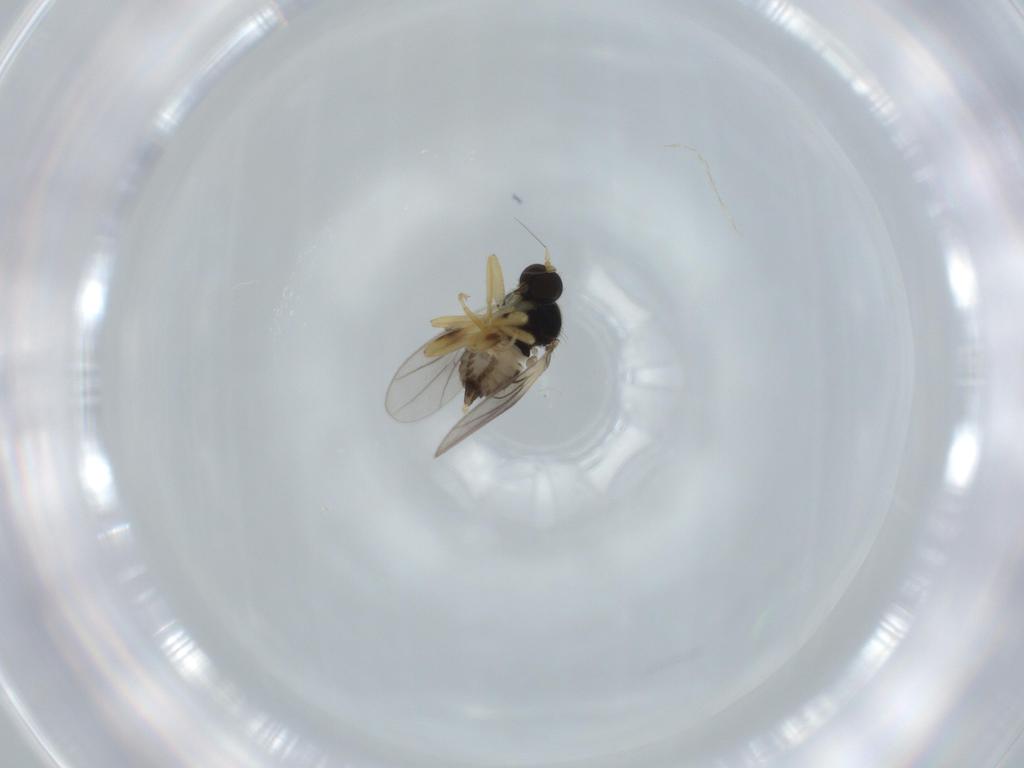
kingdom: Animalia
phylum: Arthropoda
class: Insecta
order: Diptera
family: Hybotidae
